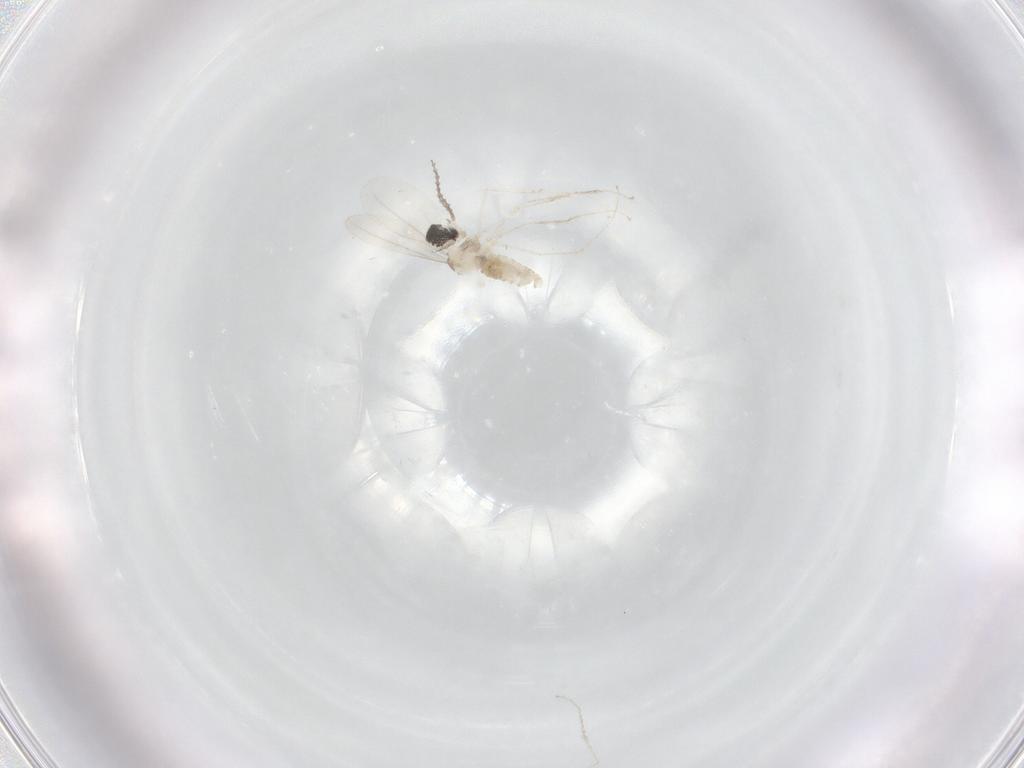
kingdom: Animalia
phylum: Arthropoda
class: Insecta
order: Diptera
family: Cecidomyiidae
